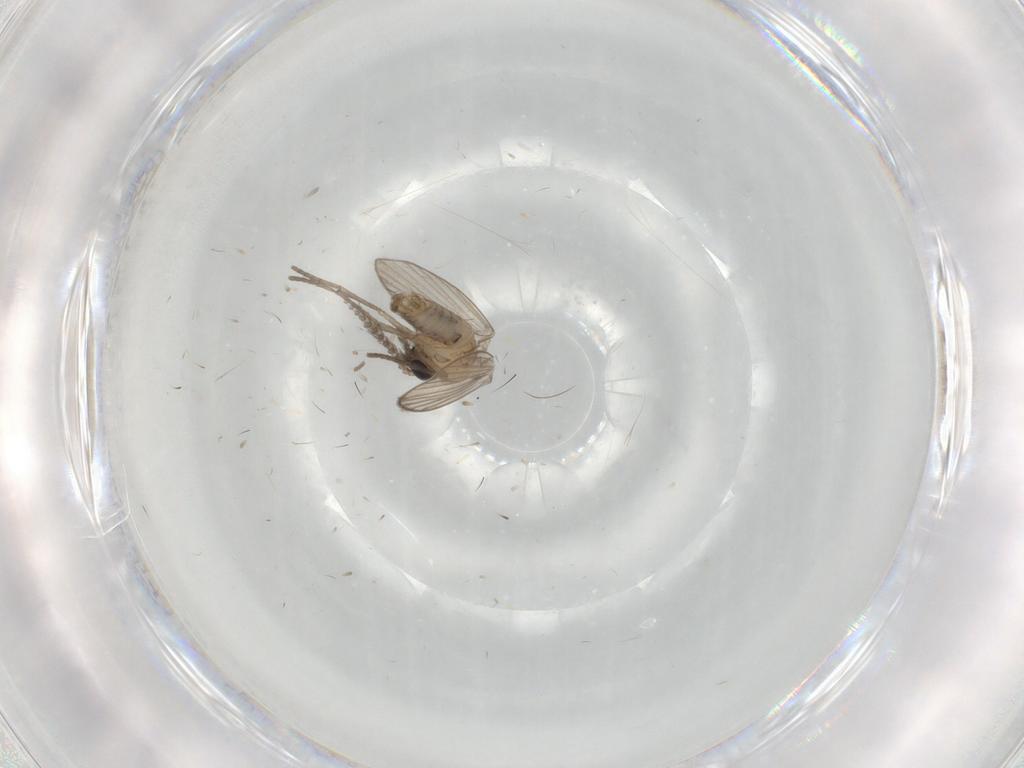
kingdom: Animalia
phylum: Arthropoda
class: Insecta
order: Diptera
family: Psychodidae
